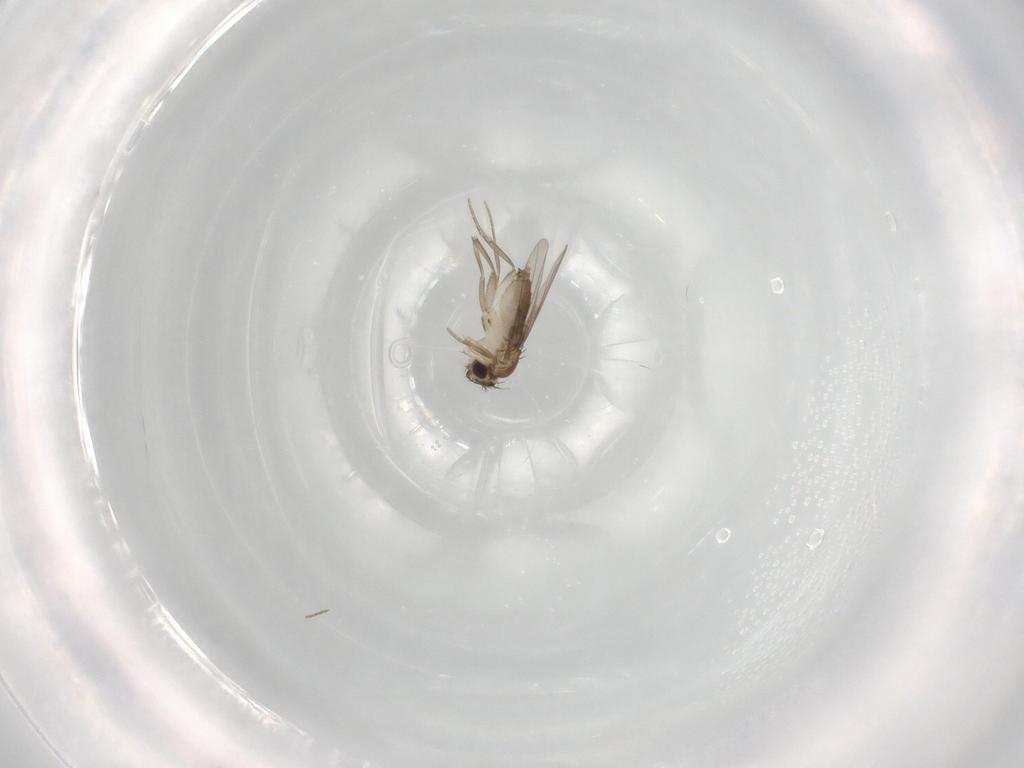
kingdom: Animalia
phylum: Arthropoda
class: Insecta
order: Diptera
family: Phoridae
